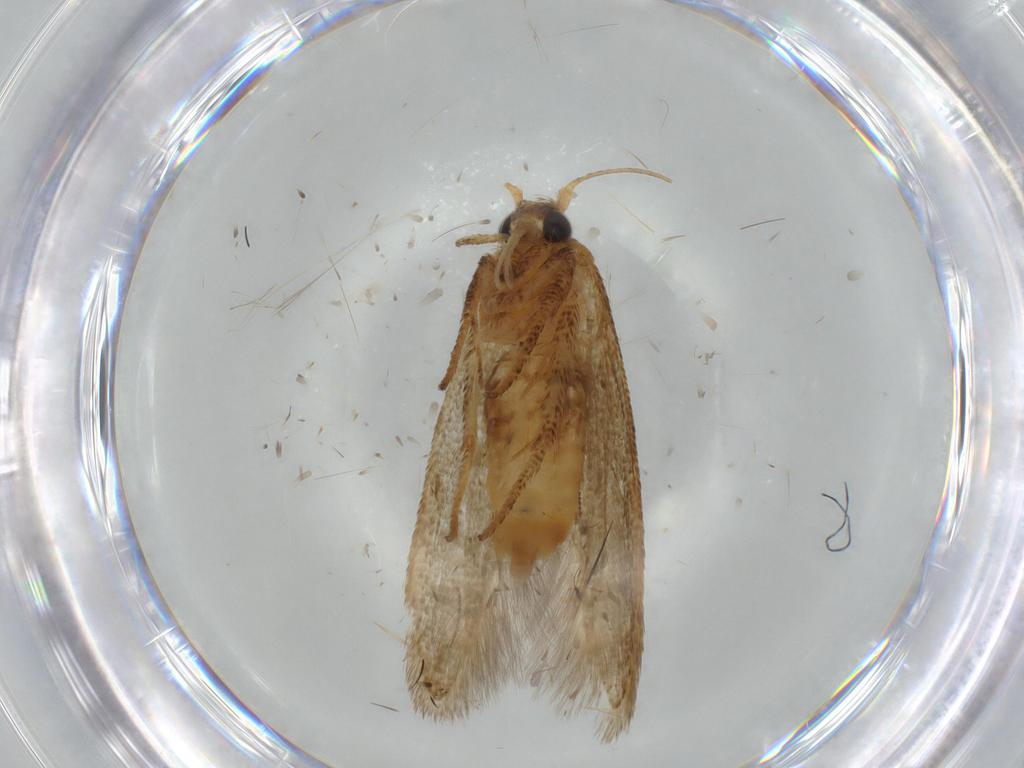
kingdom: Animalia
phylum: Arthropoda
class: Insecta
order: Lepidoptera
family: Coleophoridae
